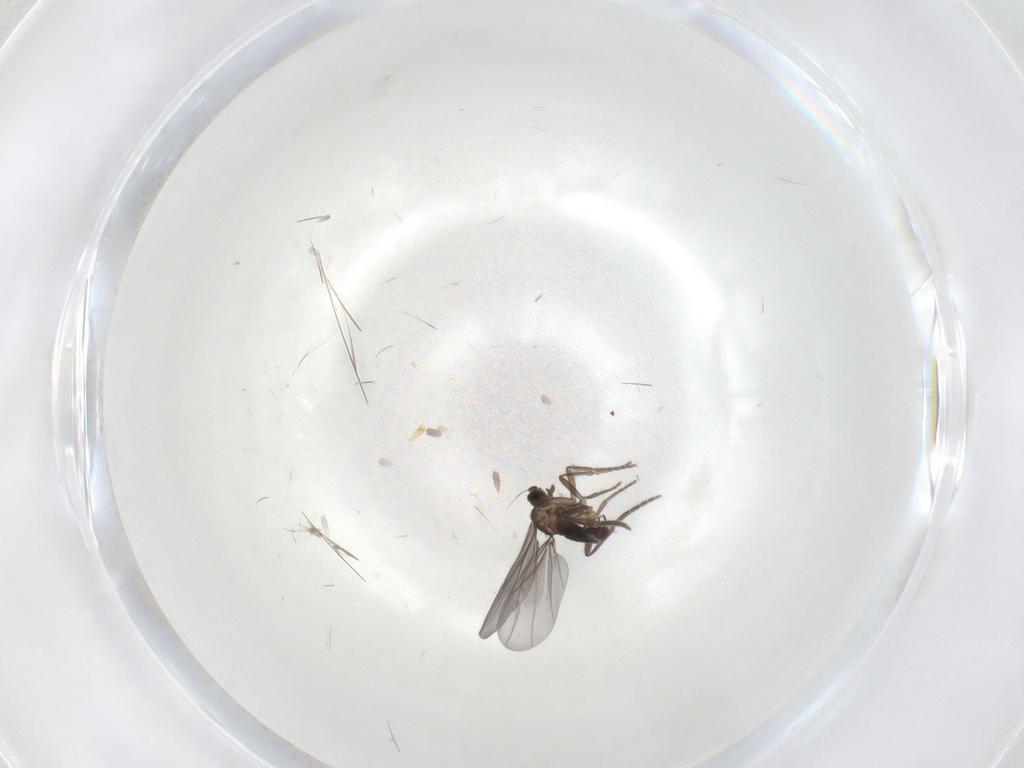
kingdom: Animalia
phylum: Arthropoda
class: Insecta
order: Diptera
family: Phoridae
